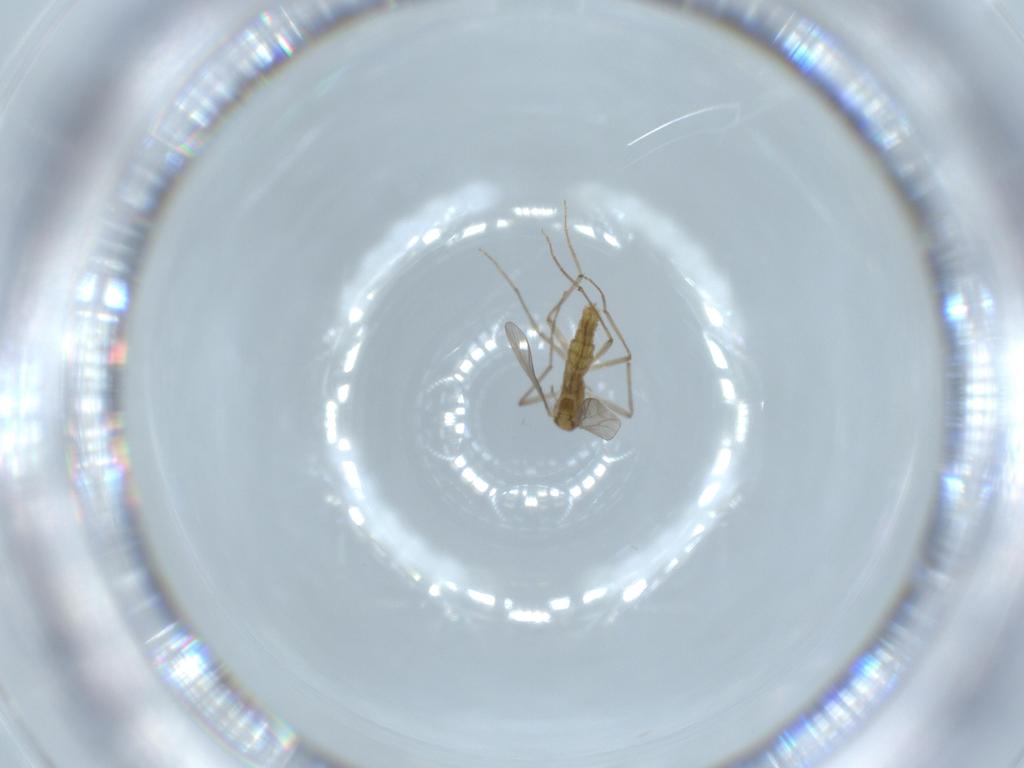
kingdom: Animalia
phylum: Arthropoda
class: Insecta
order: Diptera
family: Chironomidae
